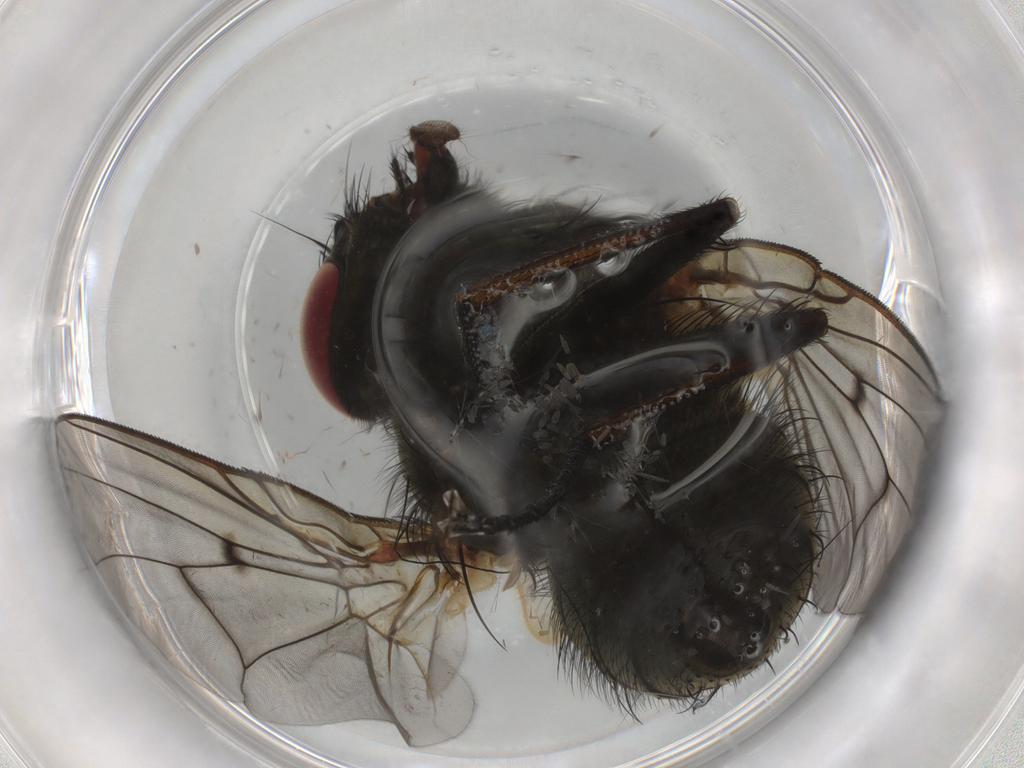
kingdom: Animalia
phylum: Arthropoda
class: Insecta
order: Diptera
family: Muscidae
